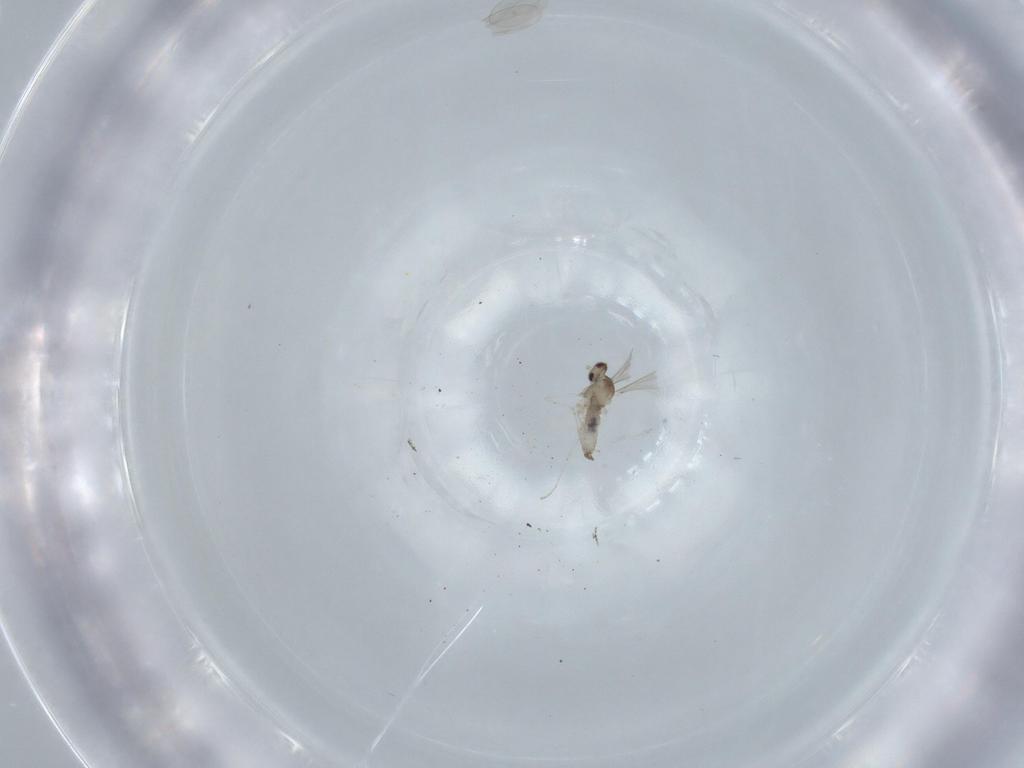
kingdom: Animalia
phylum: Arthropoda
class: Insecta
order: Diptera
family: Cecidomyiidae
